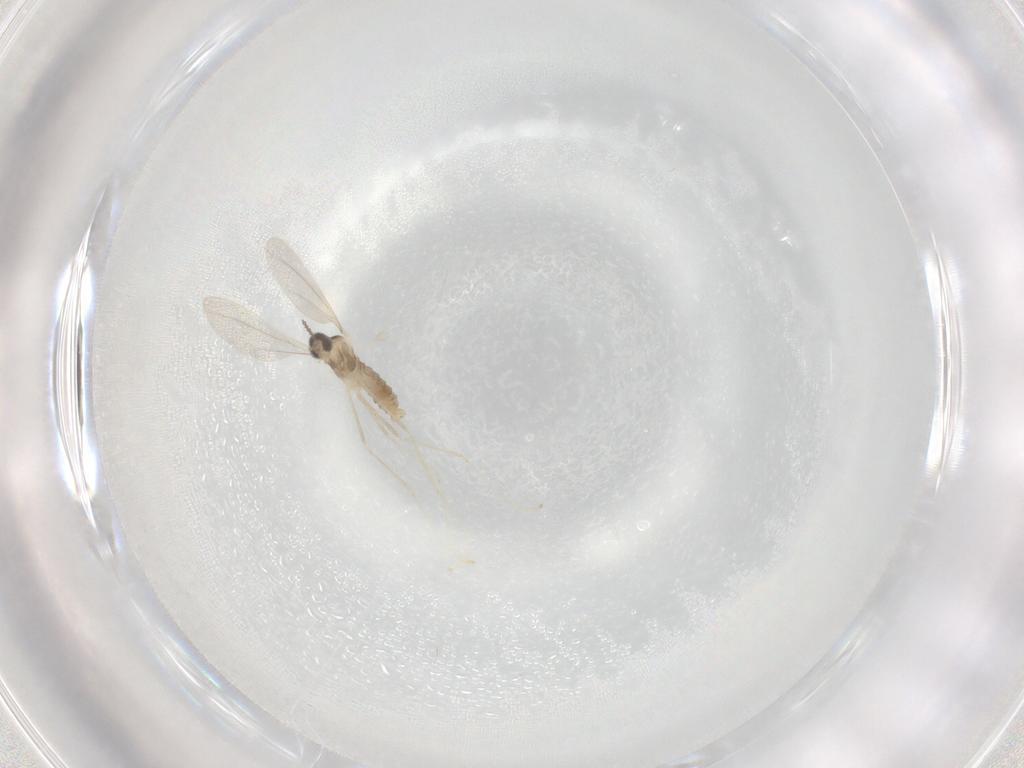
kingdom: Animalia
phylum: Arthropoda
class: Insecta
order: Diptera
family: Cecidomyiidae
